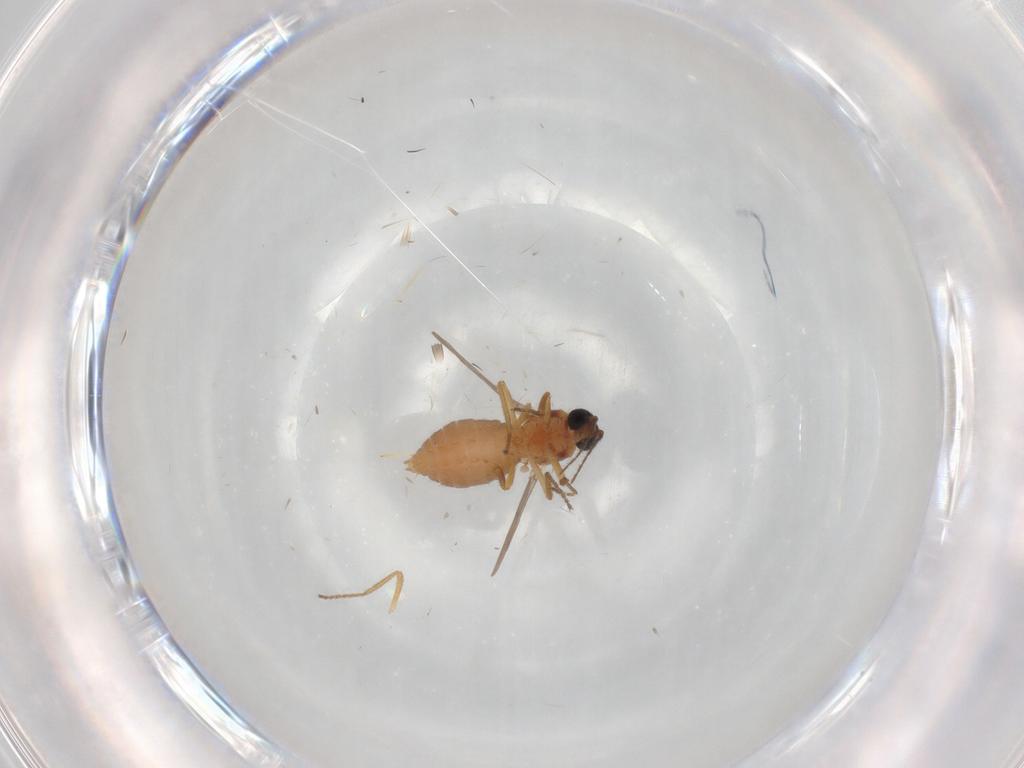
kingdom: Animalia
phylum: Arthropoda
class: Insecta
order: Diptera
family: Ceratopogonidae
